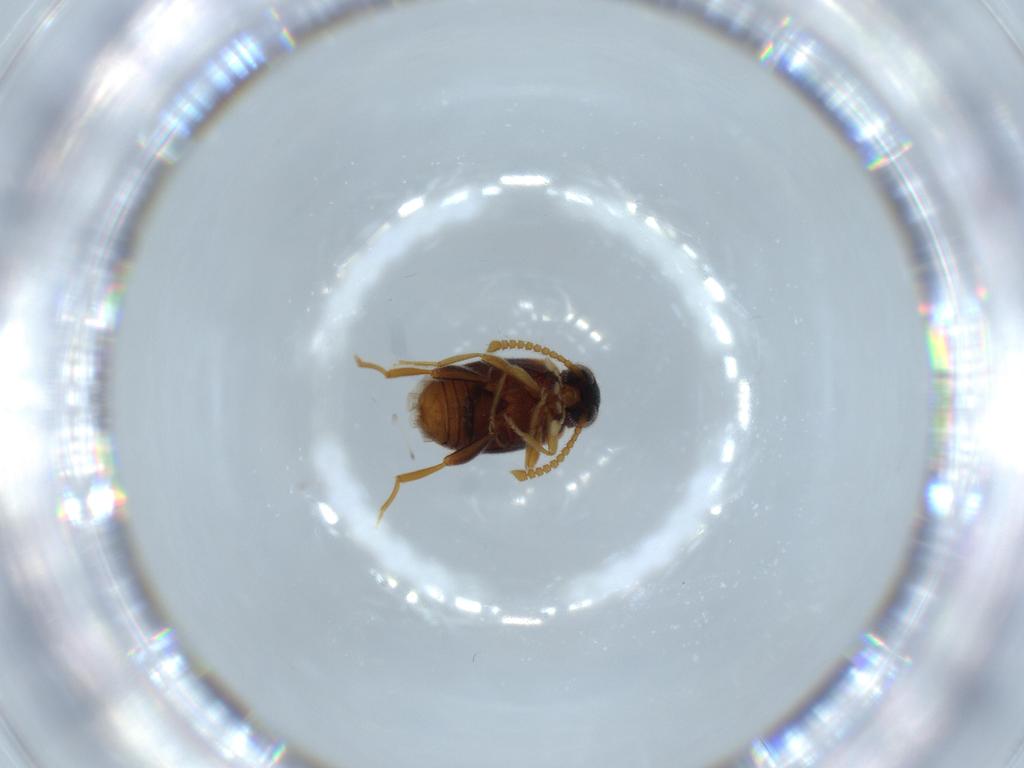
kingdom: Animalia
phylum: Arthropoda
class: Insecta
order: Coleoptera
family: Aderidae
